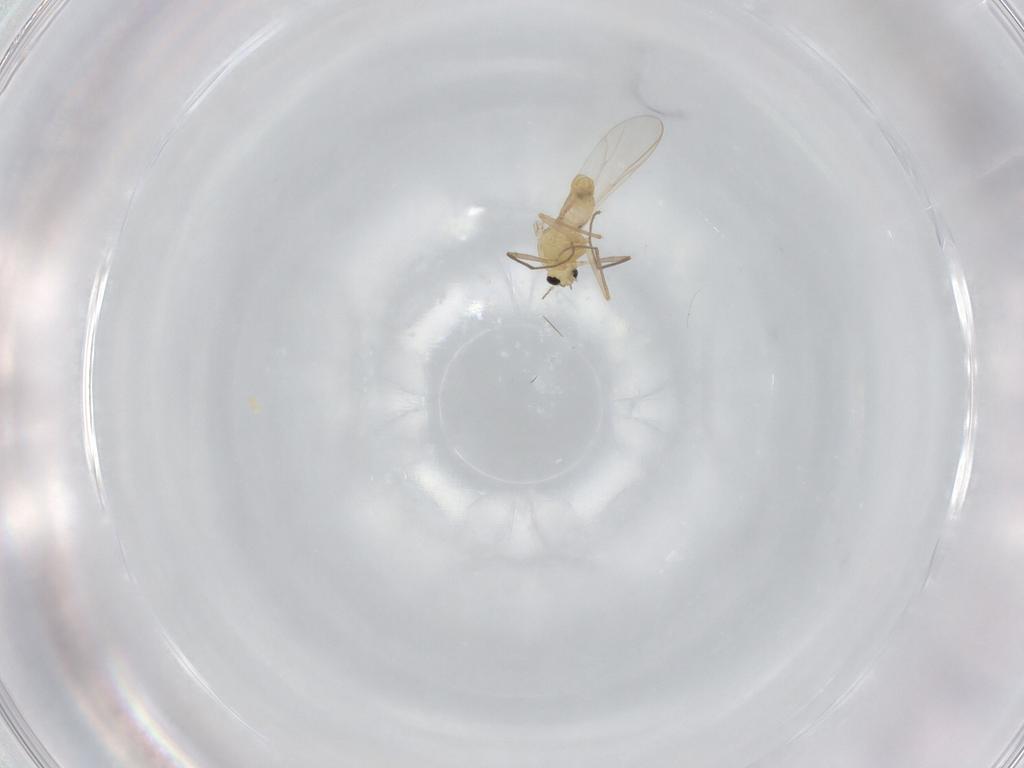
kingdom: Animalia
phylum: Arthropoda
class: Insecta
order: Diptera
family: Chironomidae
